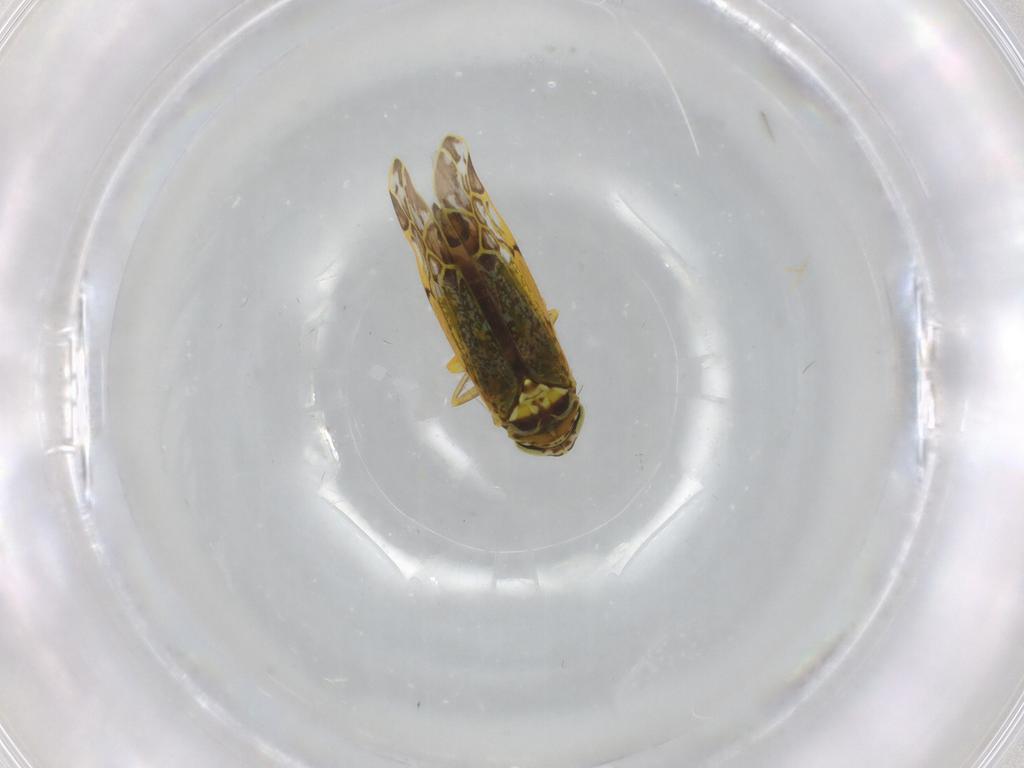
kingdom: Animalia
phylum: Arthropoda
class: Insecta
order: Hemiptera
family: Cicadellidae
